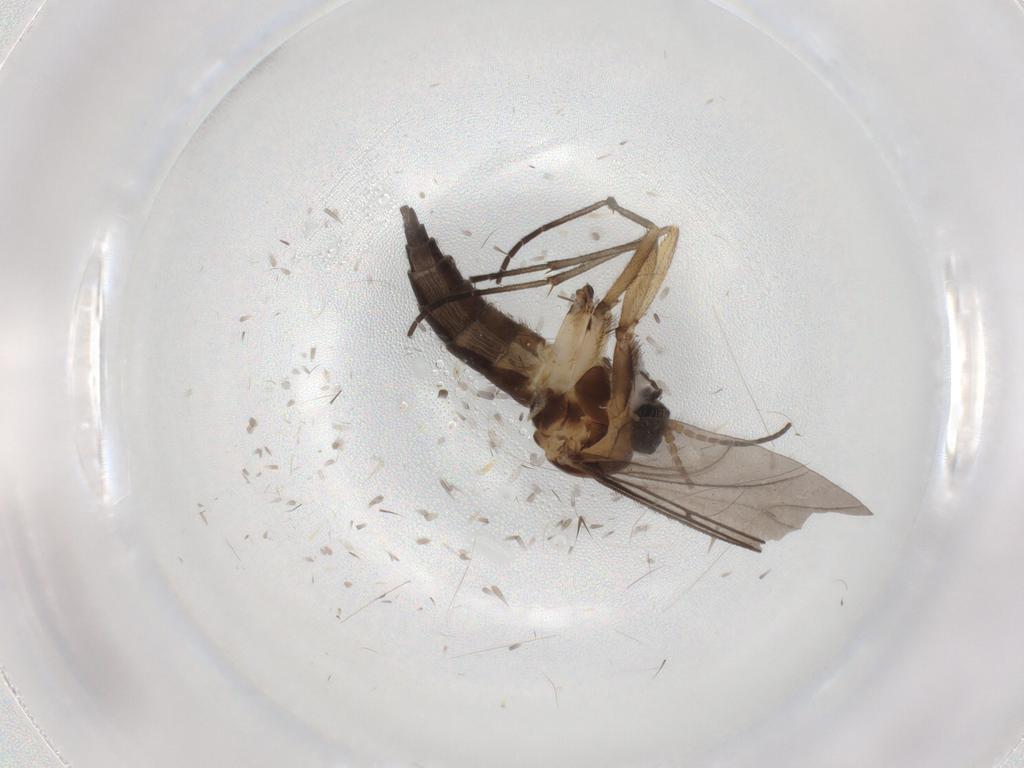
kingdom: Animalia
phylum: Arthropoda
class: Insecta
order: Diptera
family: Sciaridae
